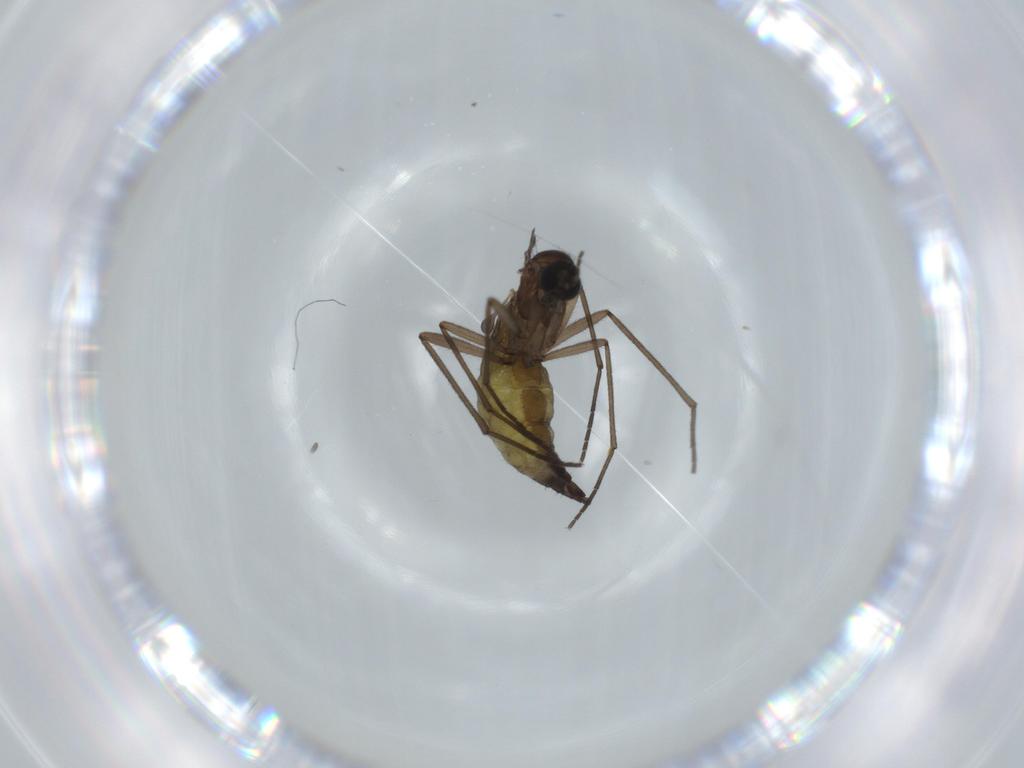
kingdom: Animalia
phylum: Arthropoda
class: Insecta
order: Diptera
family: Sciaridae
